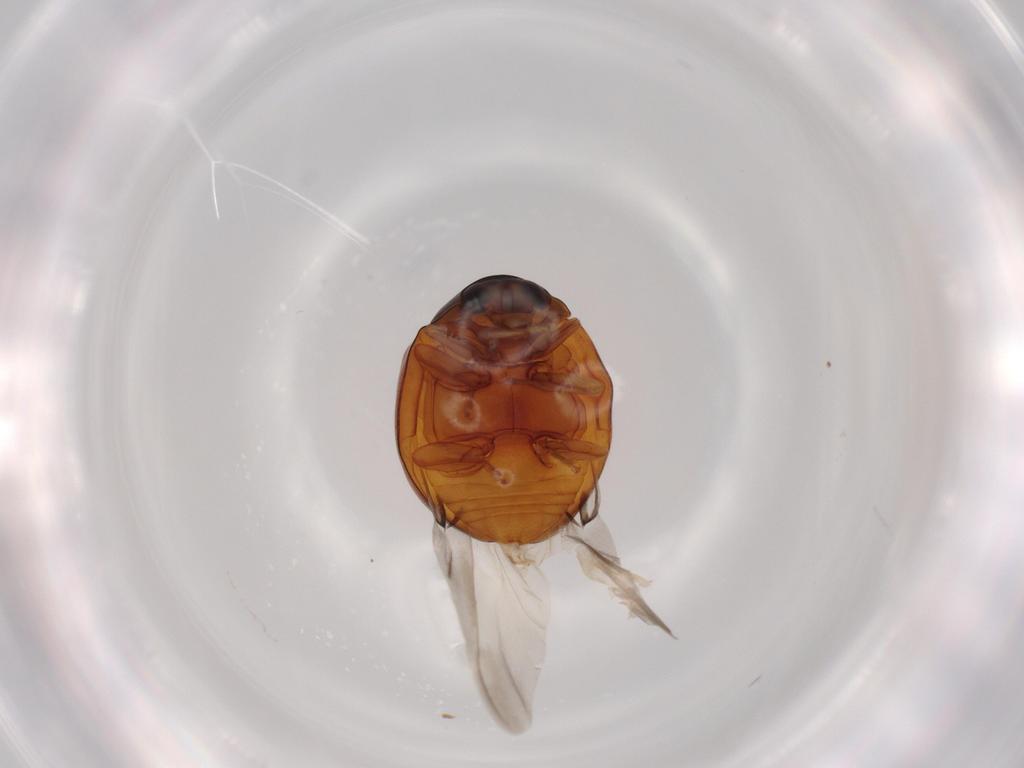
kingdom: Animalia
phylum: Arthropoda
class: Insecta
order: Coleoptera
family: Coccinellidae
